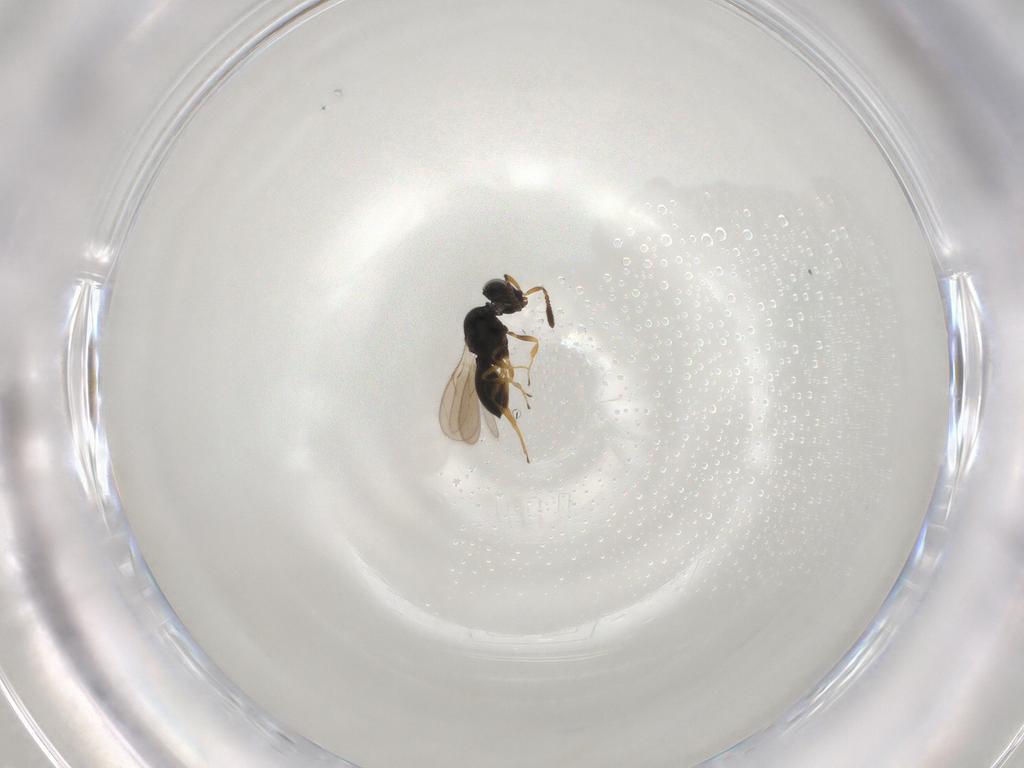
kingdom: Animalia
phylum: Arthropoda
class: Insecta
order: Hymenoptera
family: Scelionidae
